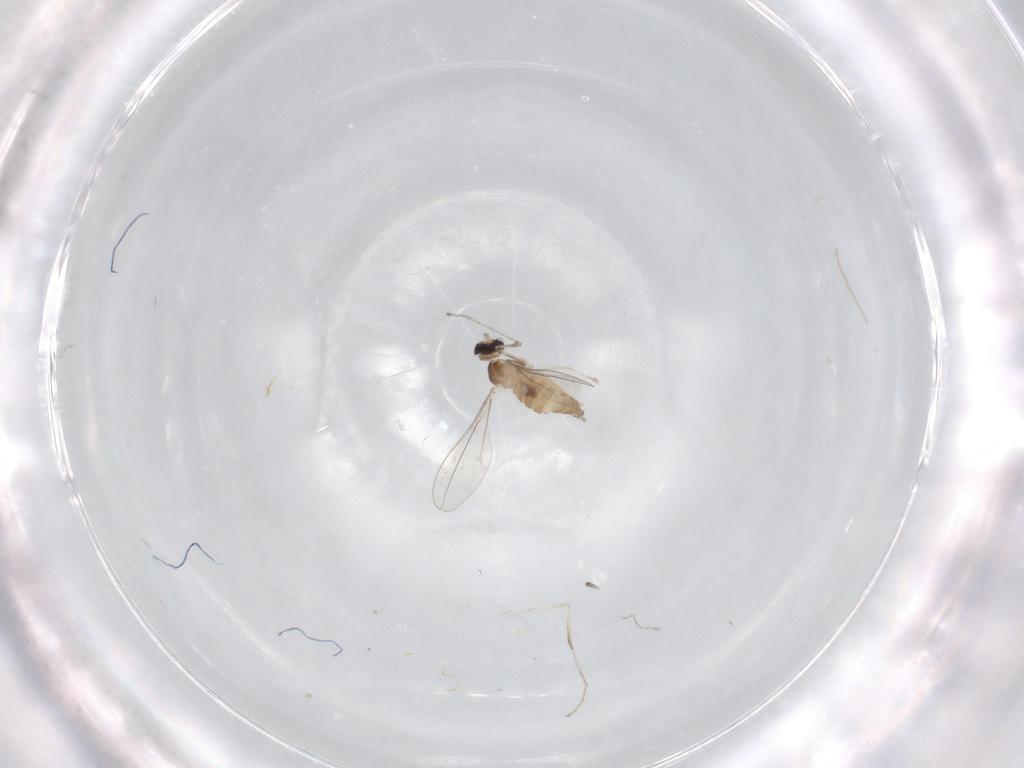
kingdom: Animalia
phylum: Arthropoda
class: Insecta
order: Diptera
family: Cecidomyiidae
